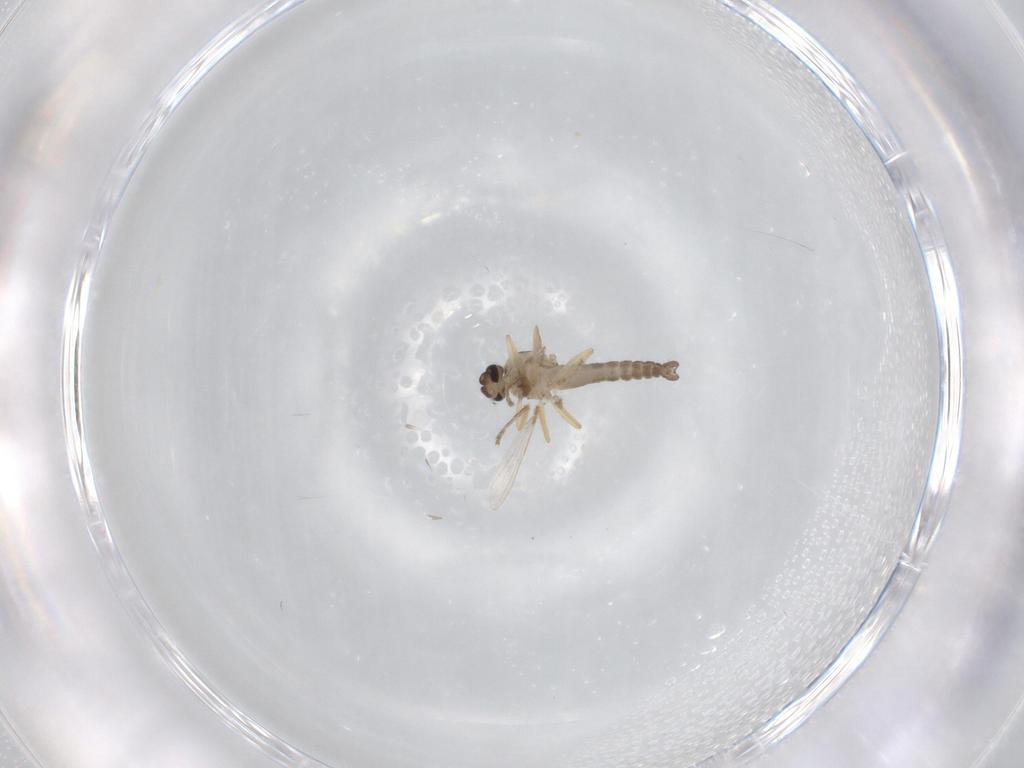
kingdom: Animalia
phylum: Arthropoda
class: Insecta
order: Diptera
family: Ceratopogonidae
